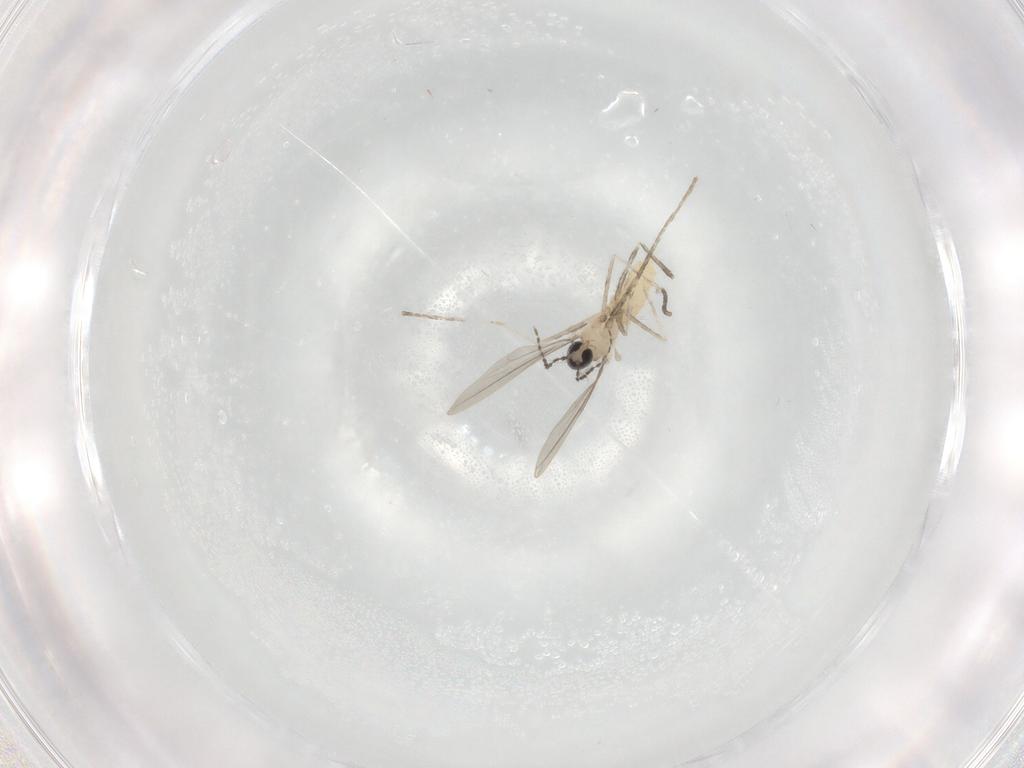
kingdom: Animalia
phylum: Arthropoda
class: Insecta
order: Diptera
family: Cecidomyiidae
